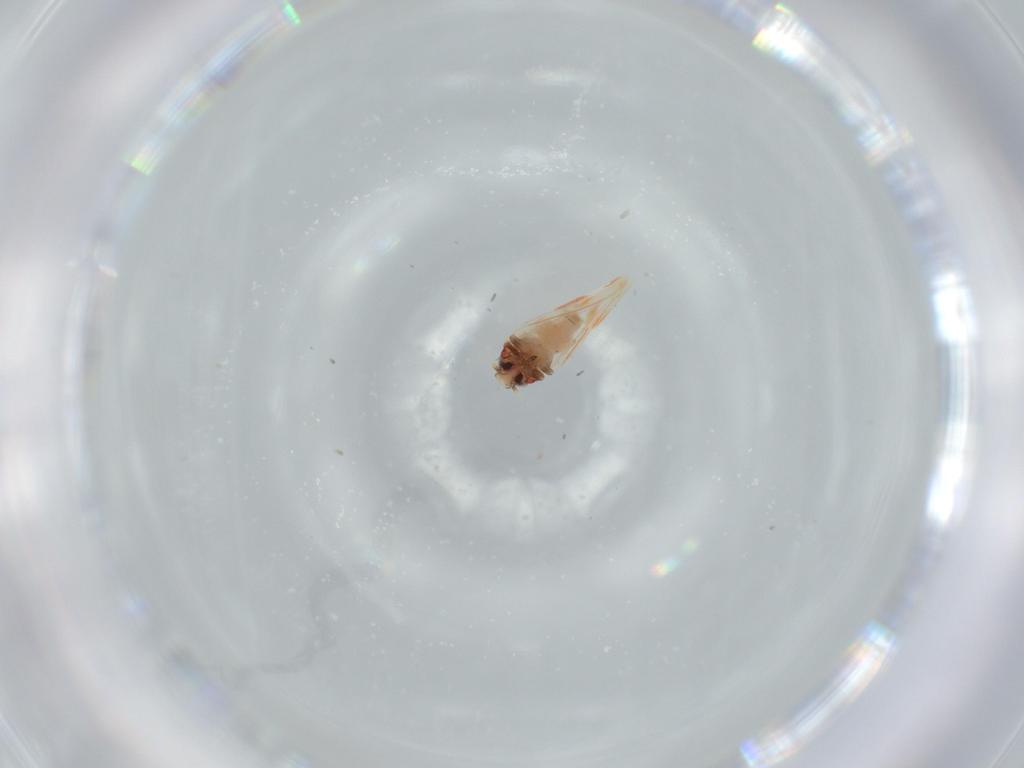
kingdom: Animalia
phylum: Arthropoda
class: Insecta
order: Hemiptera
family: Aleyrodidae
